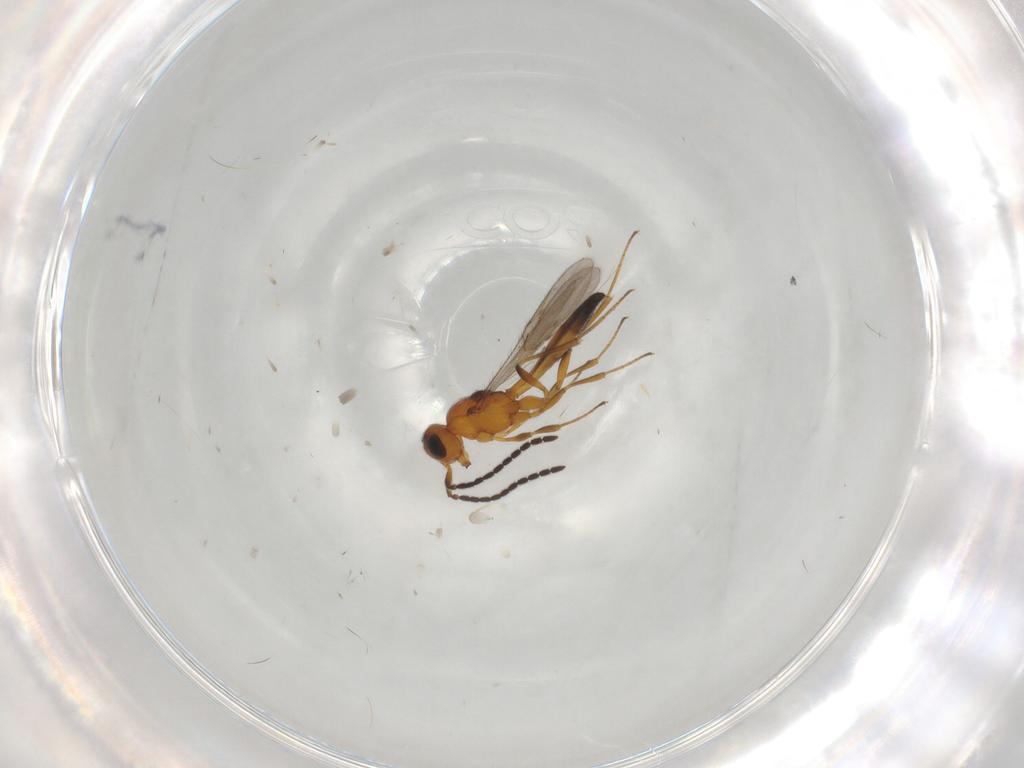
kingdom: Animalia
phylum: Arthropoda
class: Insecta
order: Hymenoptera
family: Scelionidae
